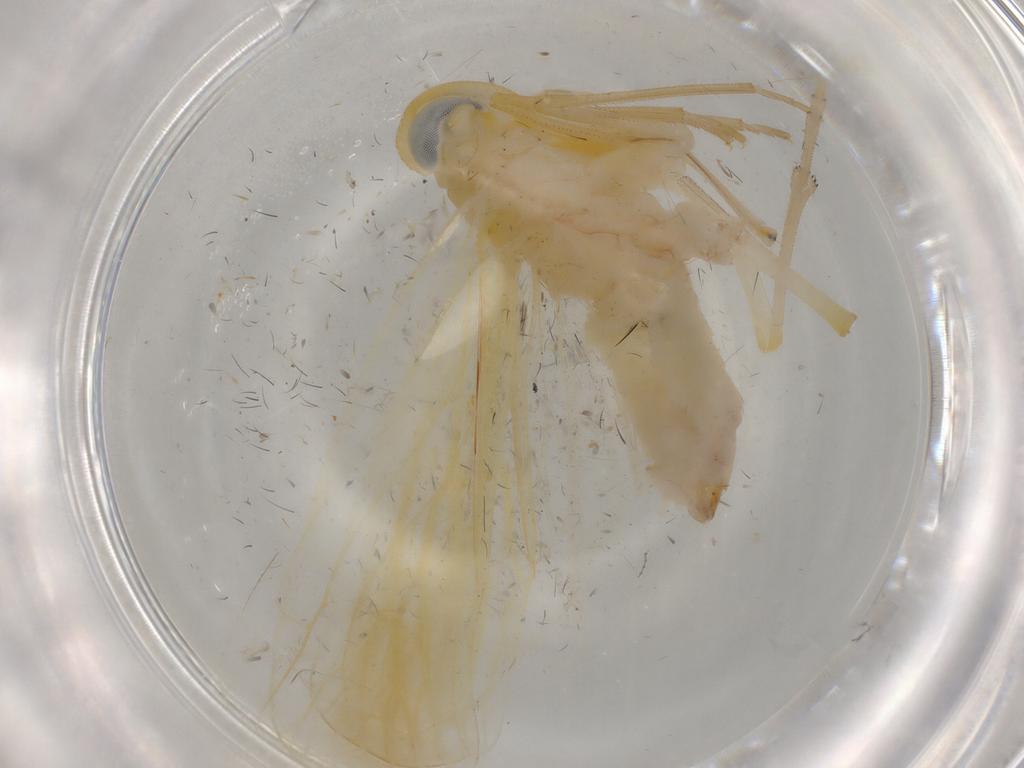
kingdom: Animalia
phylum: Arthropoda
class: Insecta
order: Hemiptera
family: Derbidae
